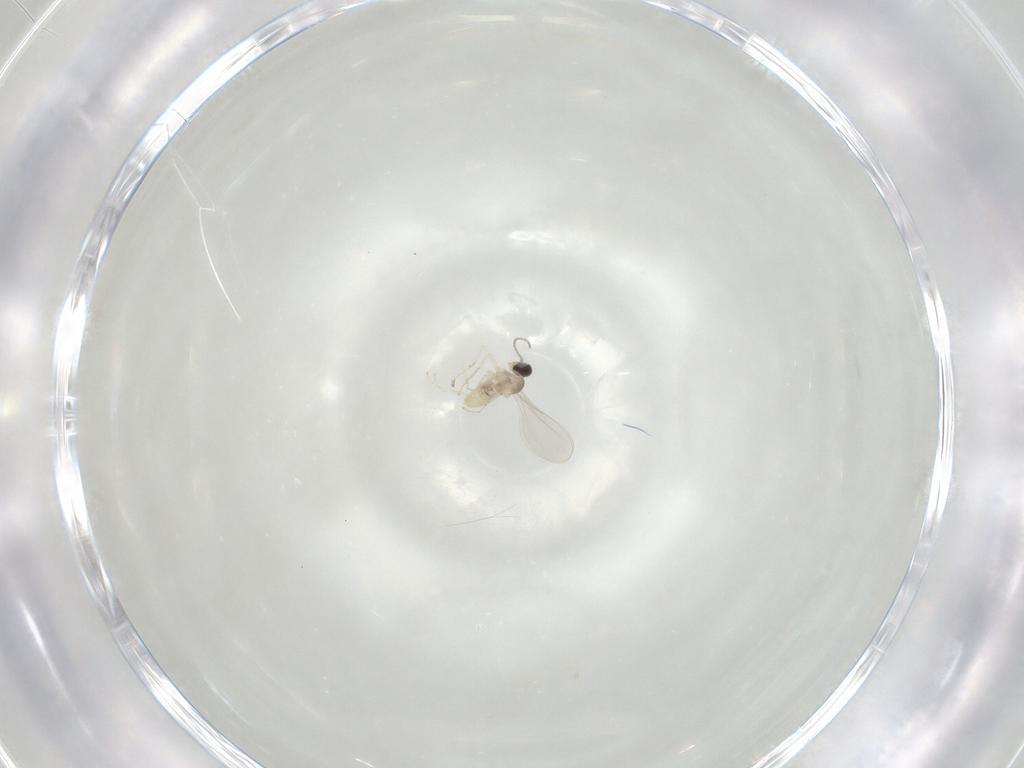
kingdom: Animalia
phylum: Arthropoda
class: Insecta
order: Diptera
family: Cecidomyiidae
